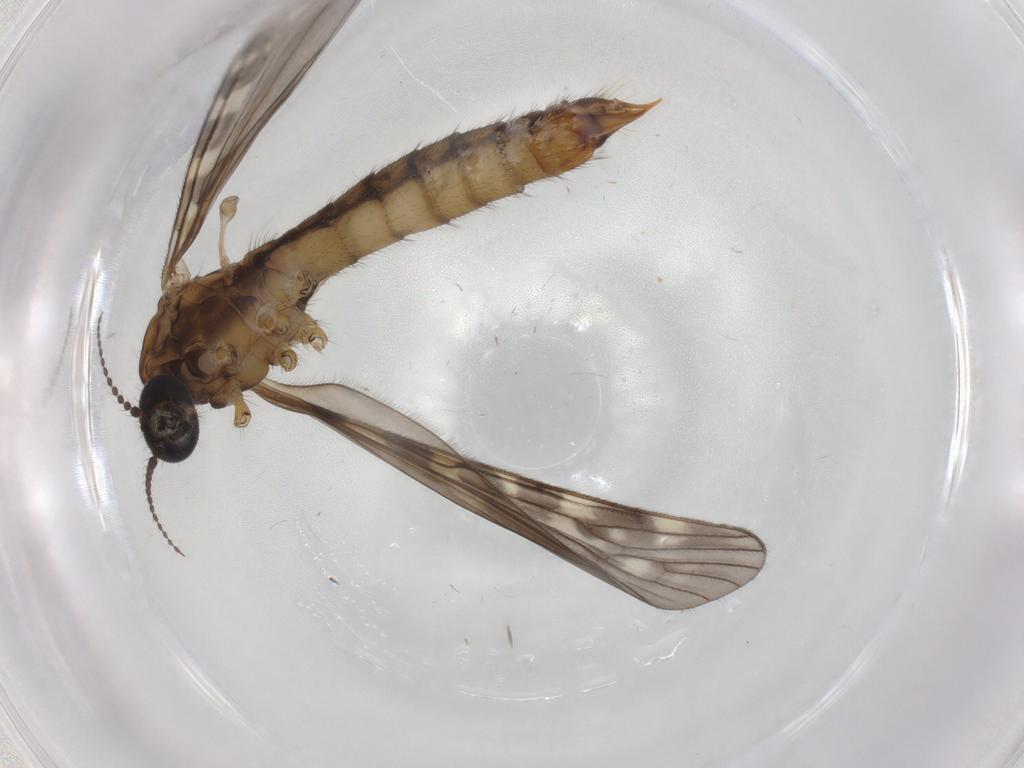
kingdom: Animalia
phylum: Arthropoda
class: Insecta
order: Diptera
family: Chironomidae
